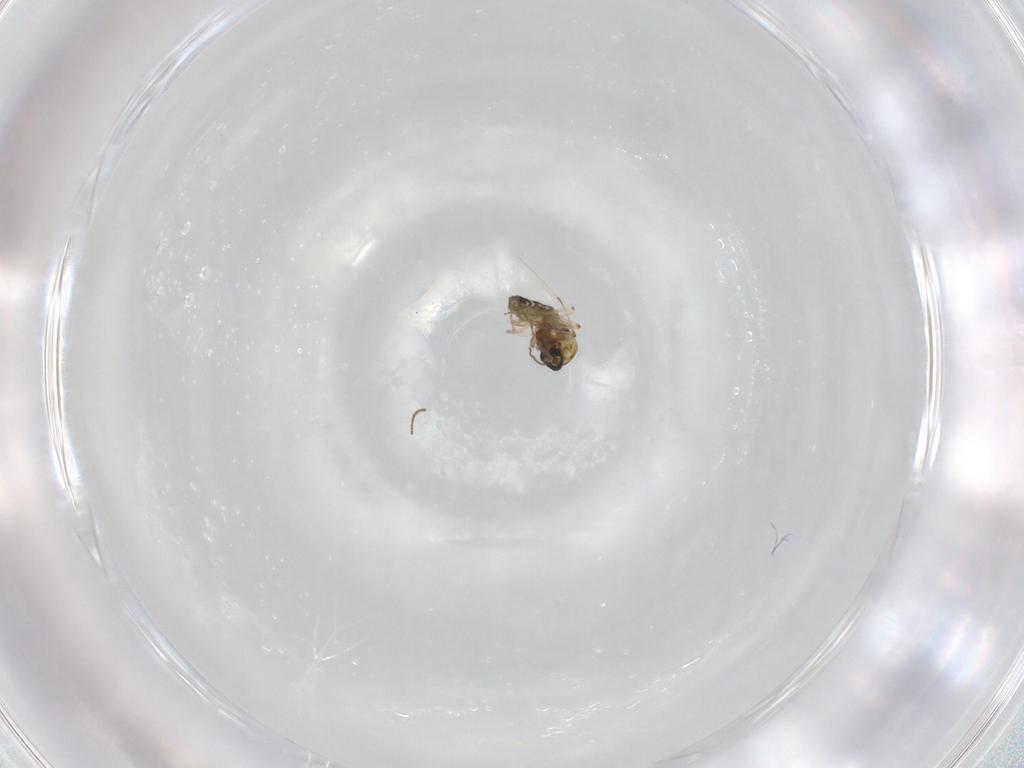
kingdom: Animalia
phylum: Arthropoda
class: Insecta
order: Diptera
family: Ceratopogonidae
